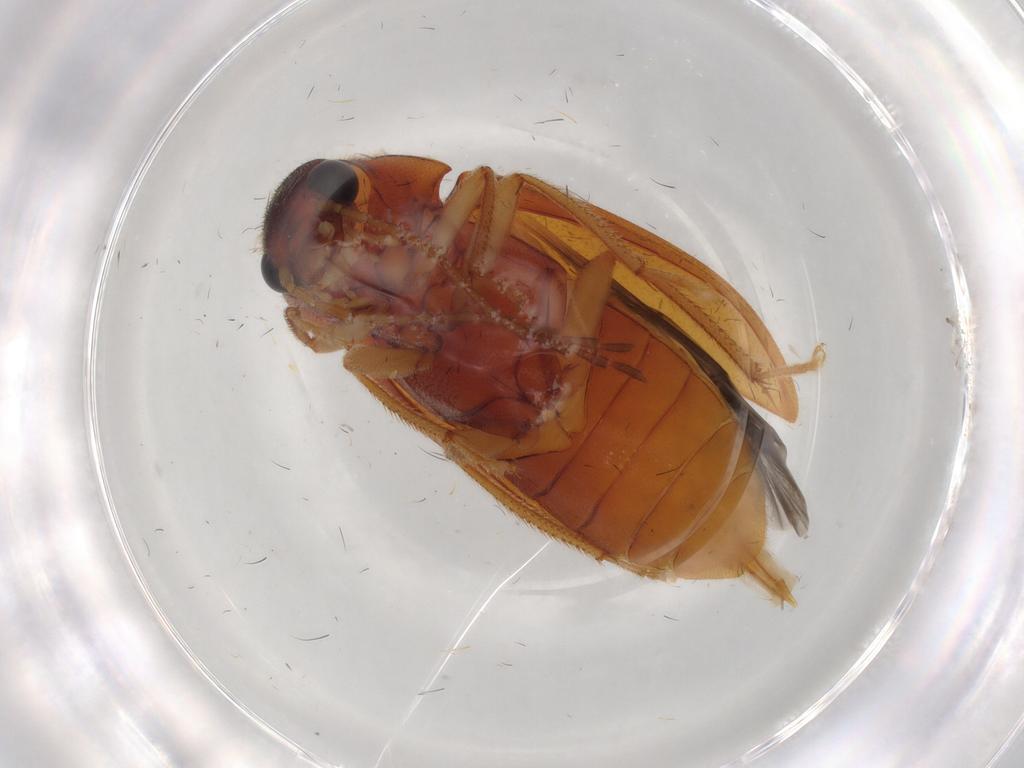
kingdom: Animalia
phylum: Arthropoda
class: Insecta
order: Coleoptera
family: Ptilodactylidae
